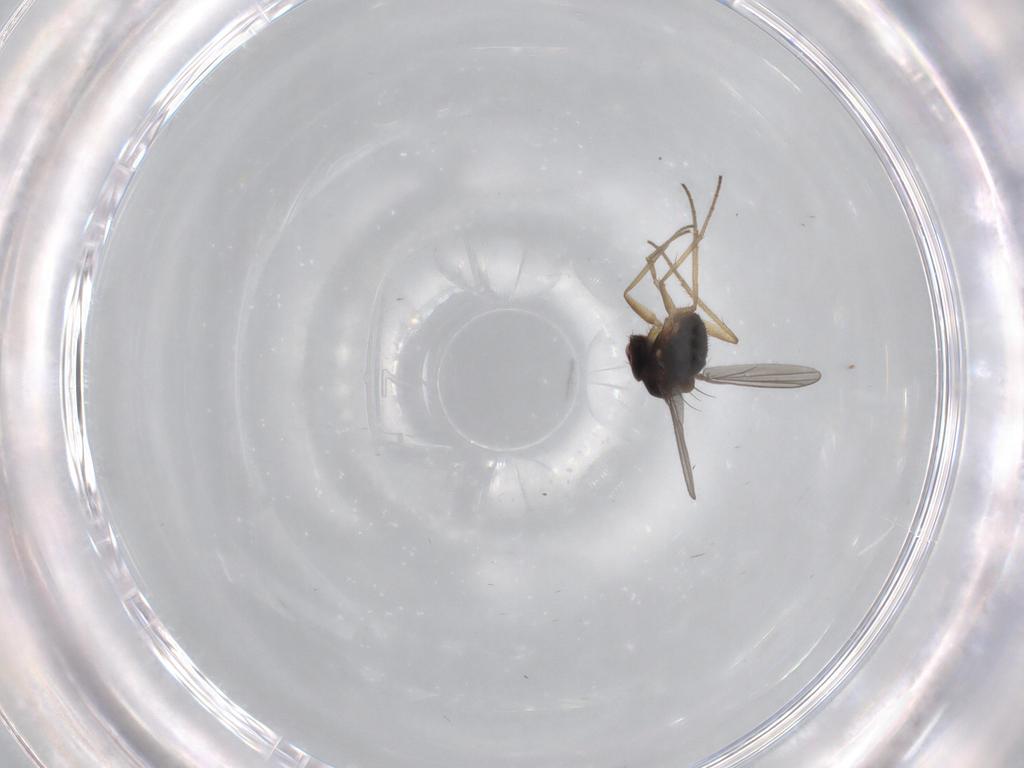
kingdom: Animalia
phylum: Arthropoda
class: Insecta
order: Diptera
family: Dolichopodidae
